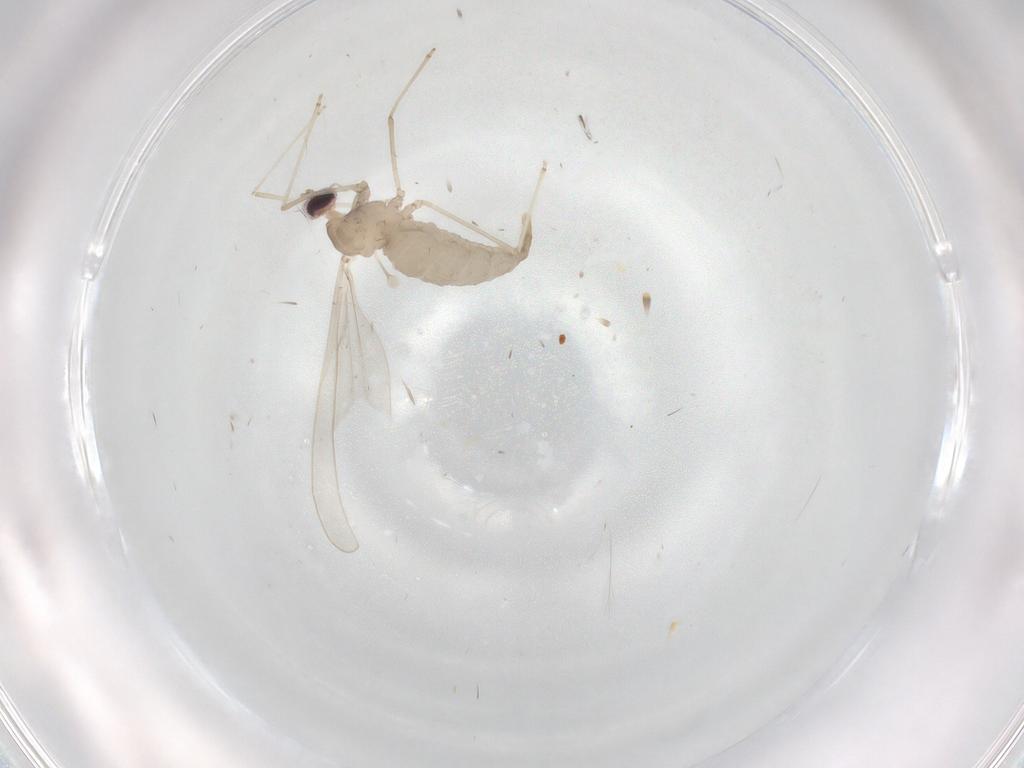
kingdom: Animalia
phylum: Arthropoda
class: Insecta
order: Diptera
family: Cecidomyiidae
